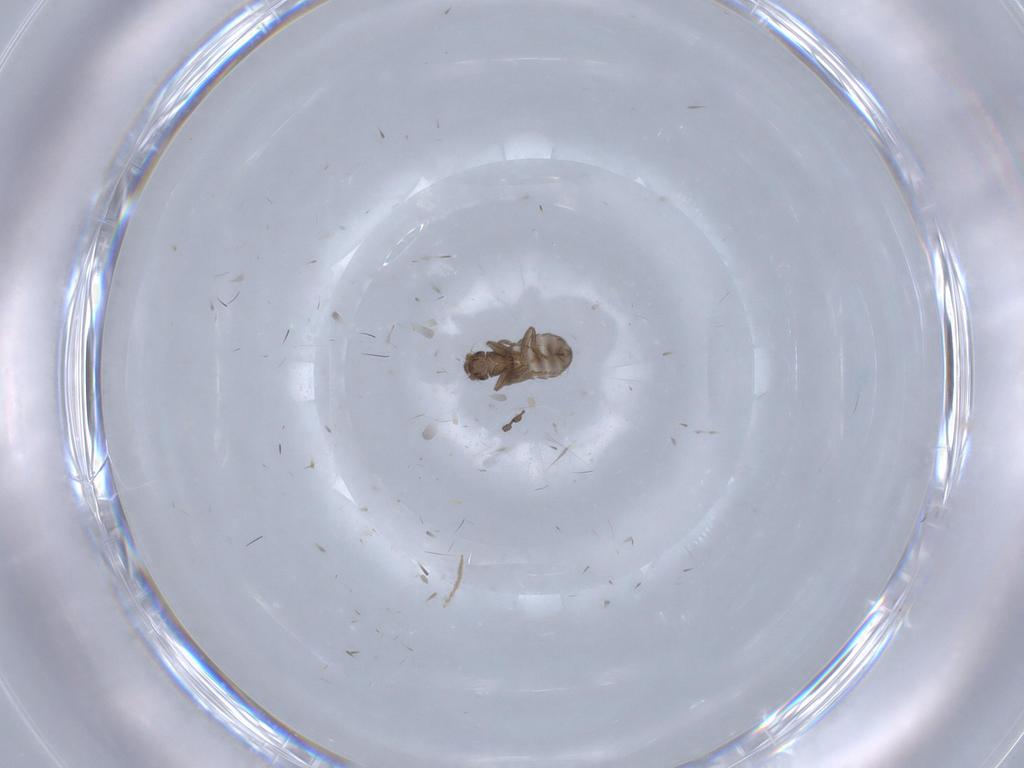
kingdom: Animalia
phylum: Arthropoda
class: Insecta
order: Diptera
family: Chironomidae
